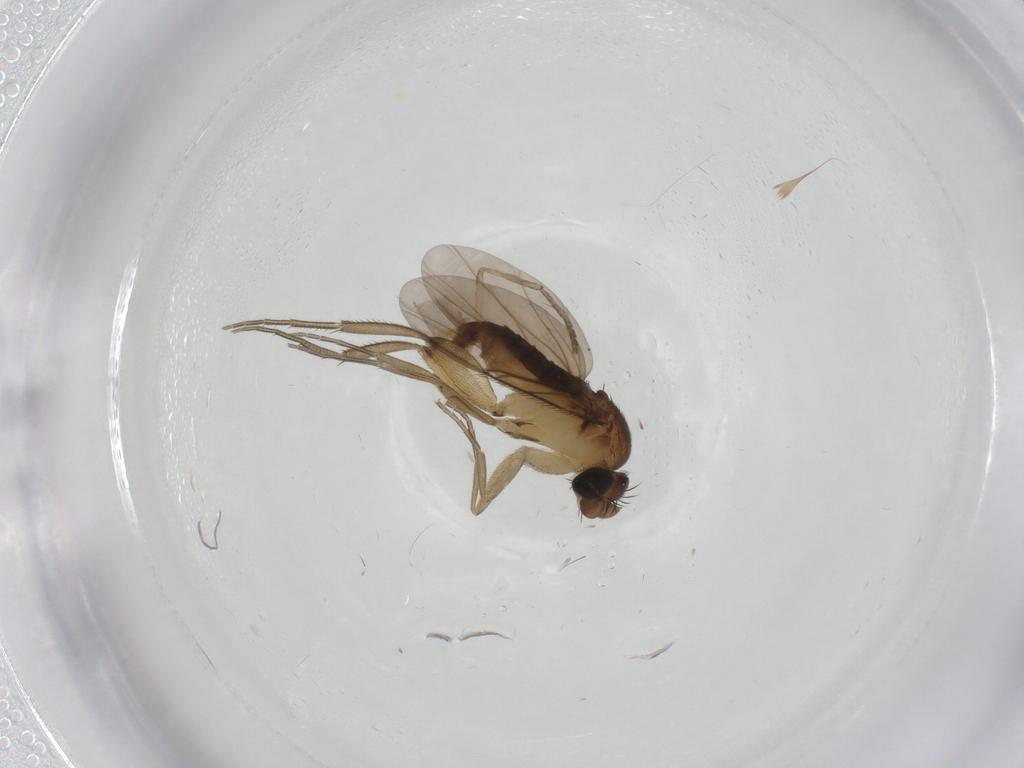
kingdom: Animalia
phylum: Arthropoda
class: Insecta
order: Diptera
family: Phoridae
